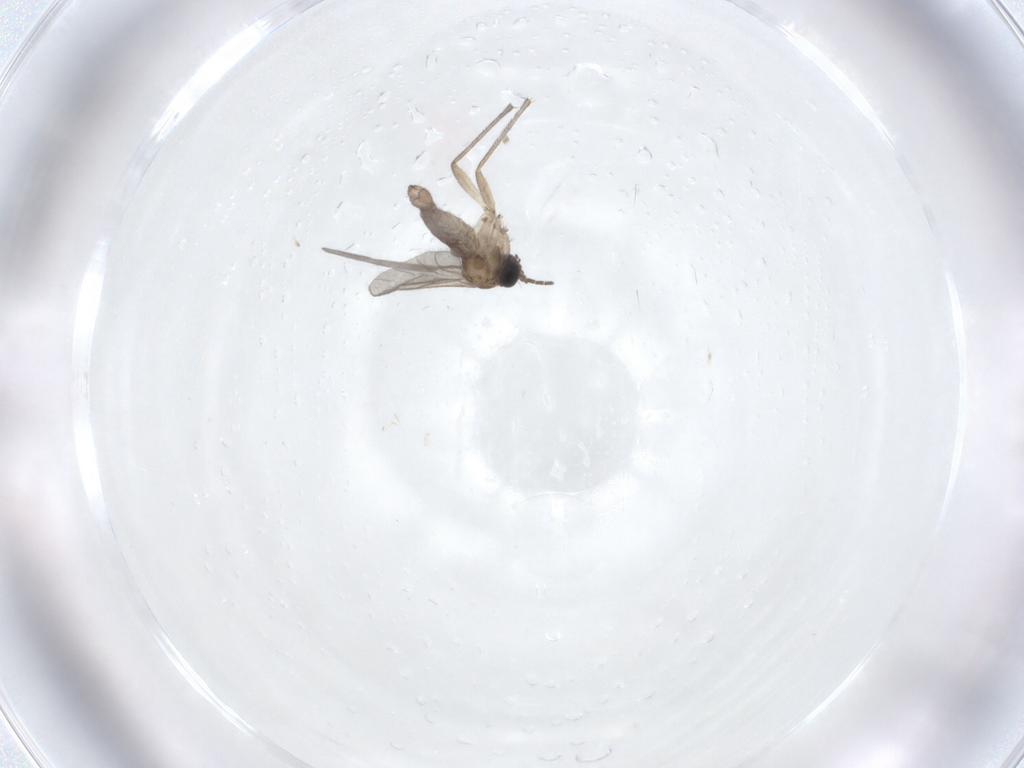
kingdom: Animalia
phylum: Arthropoda
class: Insecta
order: Diptera
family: Sciaridae
